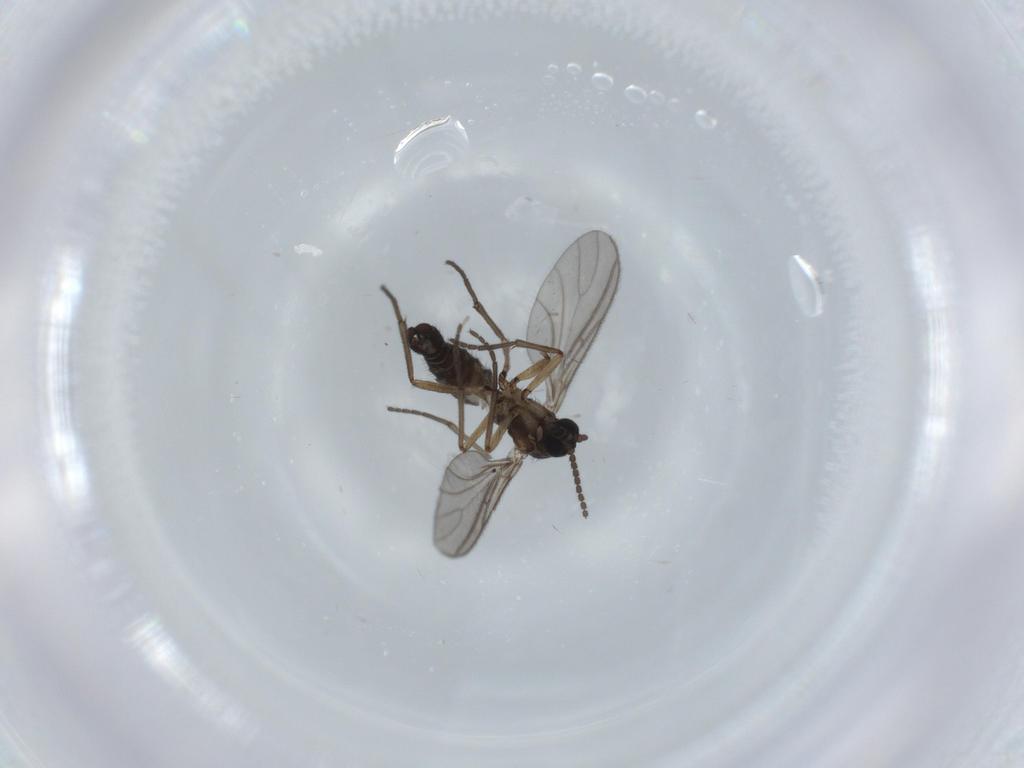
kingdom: Animalia
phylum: Arthropoda
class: Insecta
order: Diptera
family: Sciaridae
